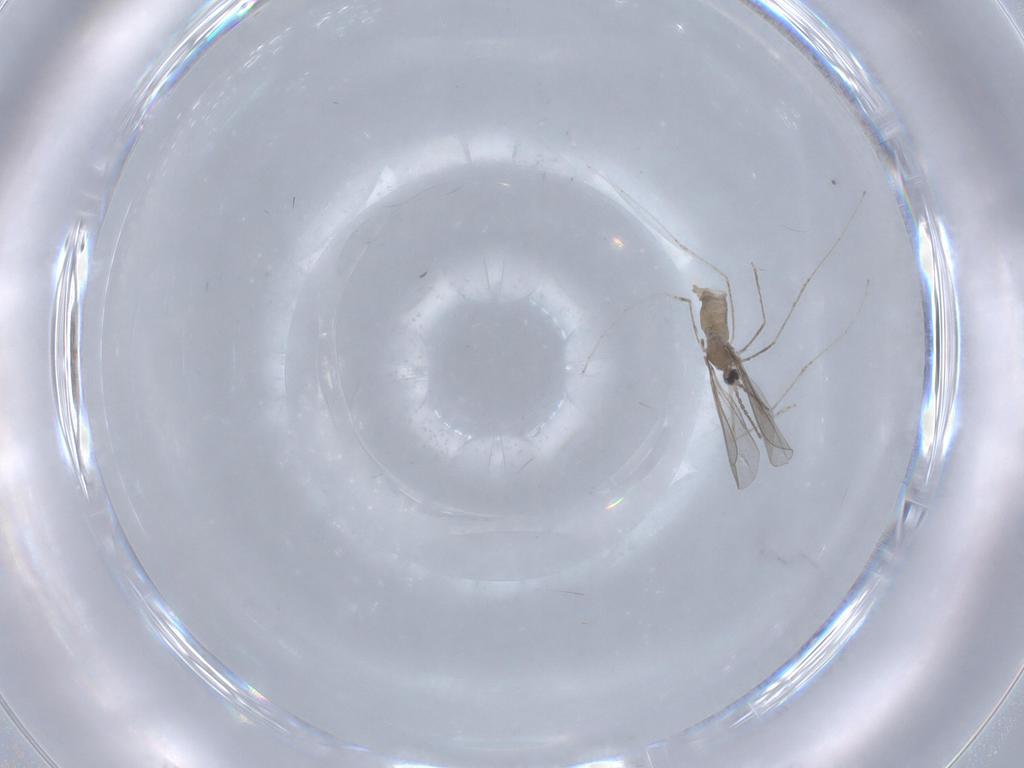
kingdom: Animalia
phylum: Arthropoda
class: Insecta
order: Diptera
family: Cecidomyiidae
